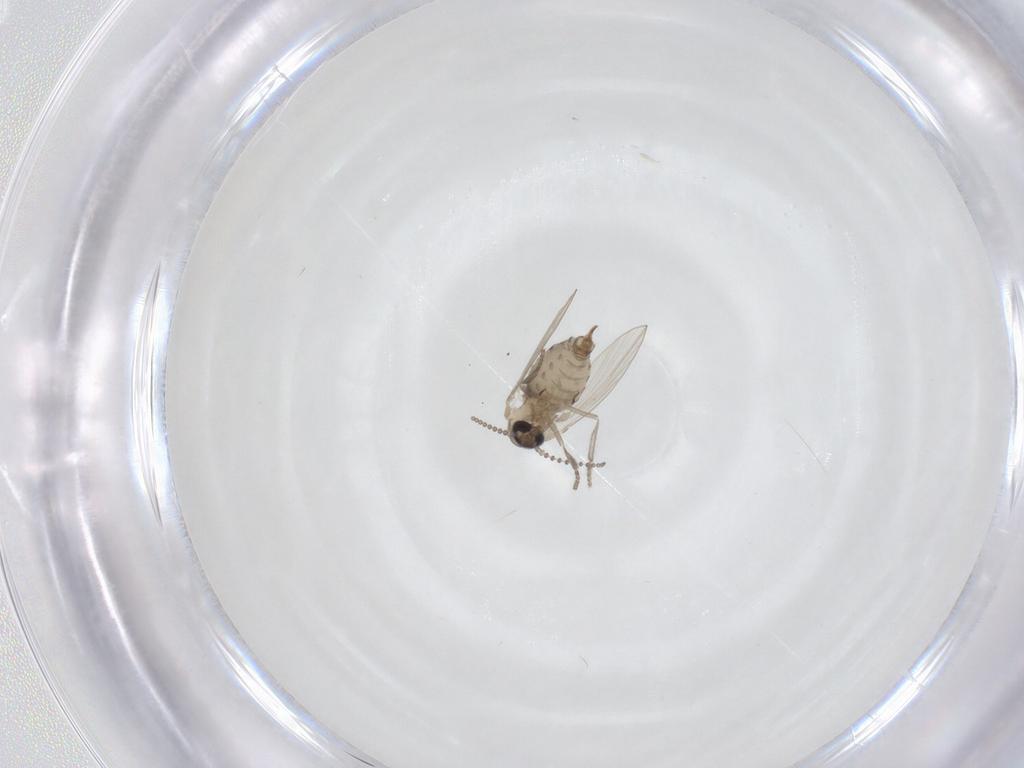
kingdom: Animalia
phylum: Arthropoda
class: Insecta
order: Diptera
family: Psychodidae
